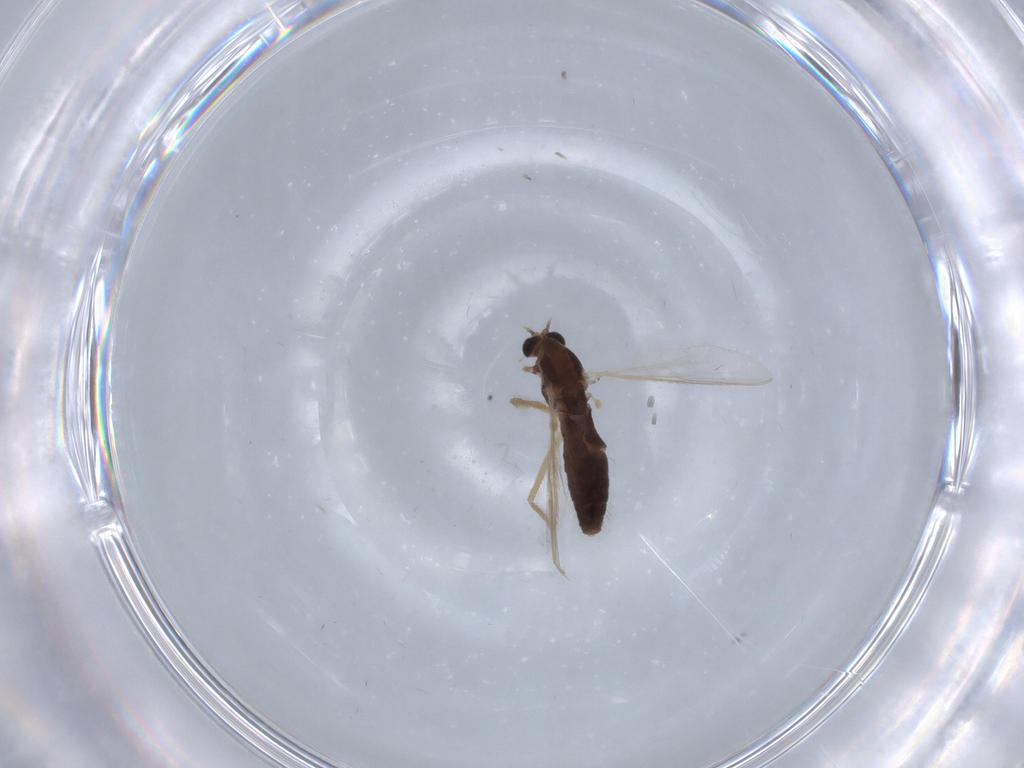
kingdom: Animalia
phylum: Arthropoda
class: Insecta
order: Diptera
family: Chironomidae
